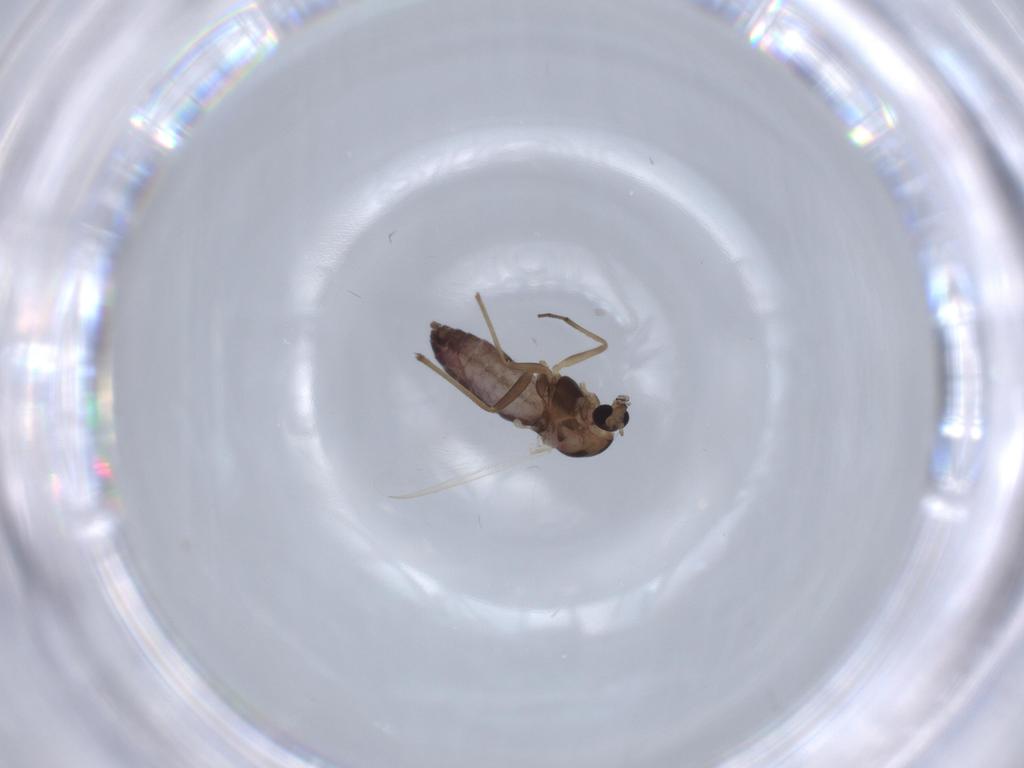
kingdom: Animalia
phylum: Arthropoda
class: Insecta
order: Diptera
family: Chironomidae
